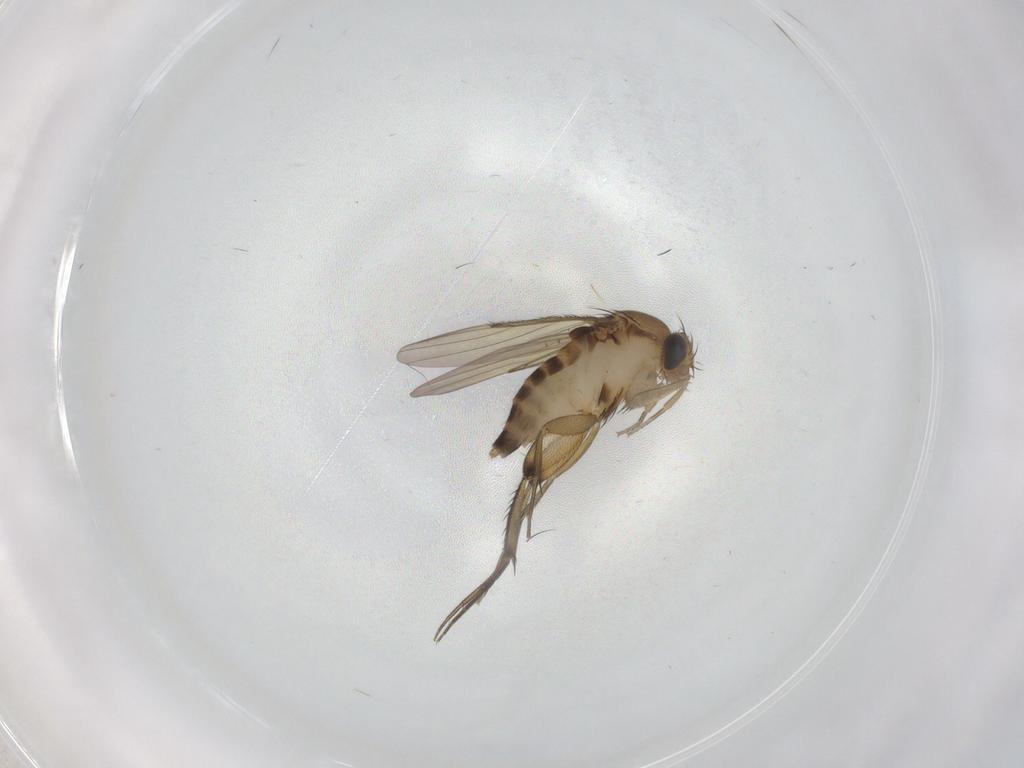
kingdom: Animalia
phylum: Arthropoda
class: Insecta
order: Diptera
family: Phoridae
